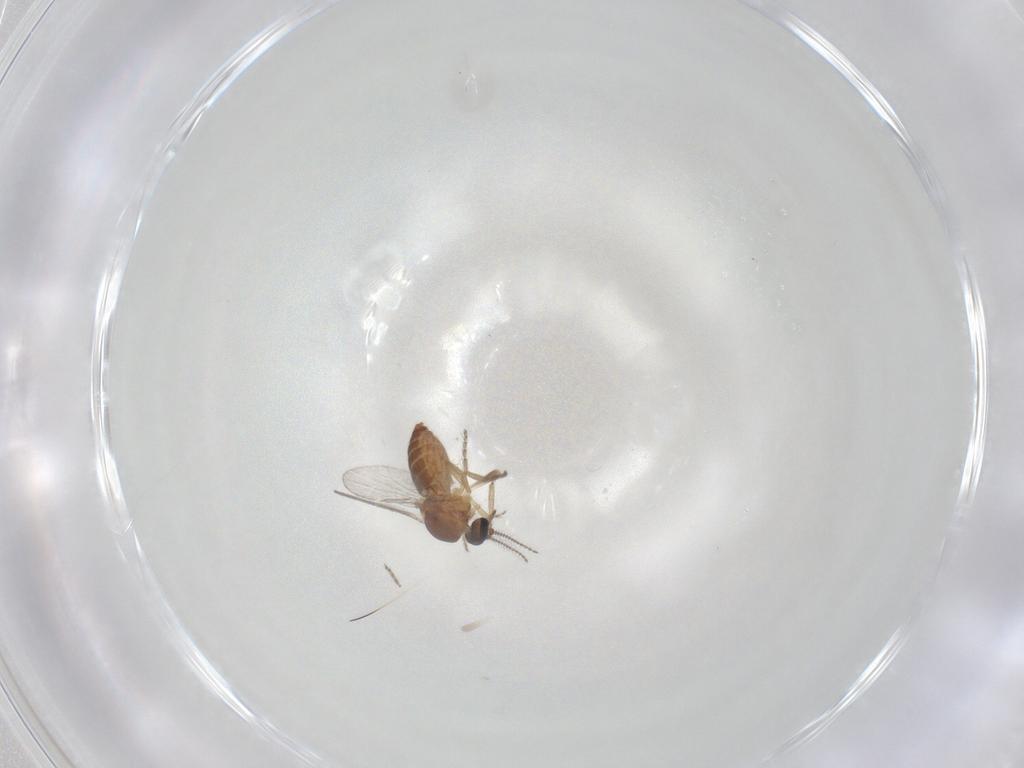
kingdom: Animalia
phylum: Arthropoda
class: Insecta
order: Diptera
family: Ceratopogonidae
